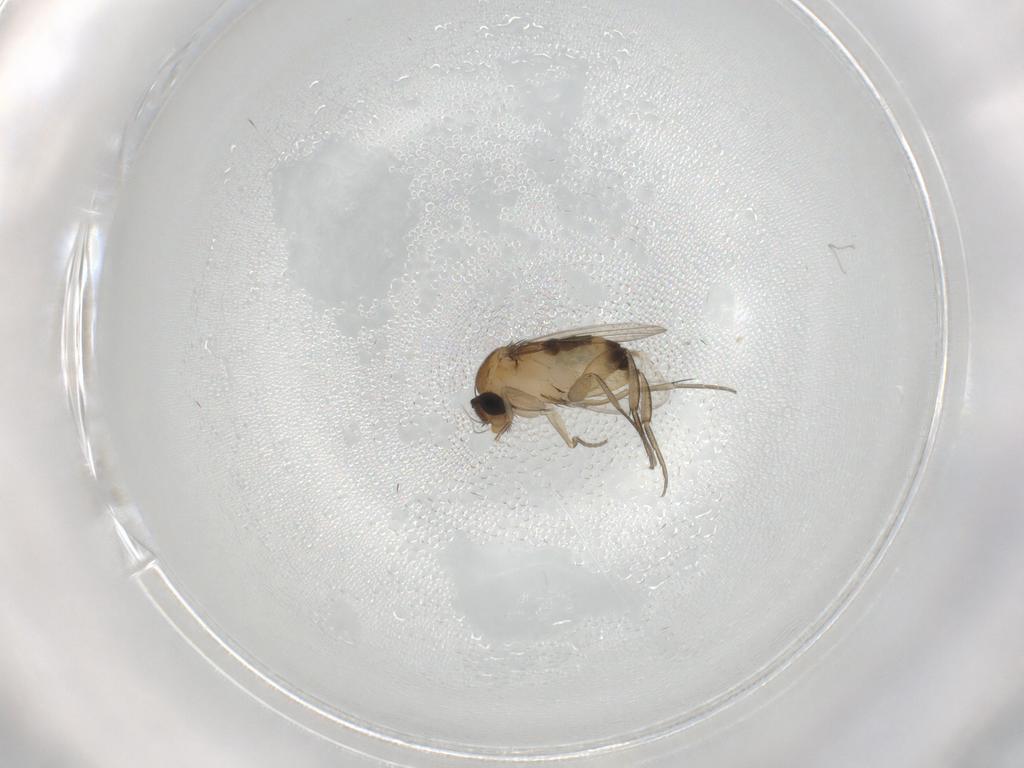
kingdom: Animalia
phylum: Arthropoda
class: Insecta
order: Diptera
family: Phoridae
